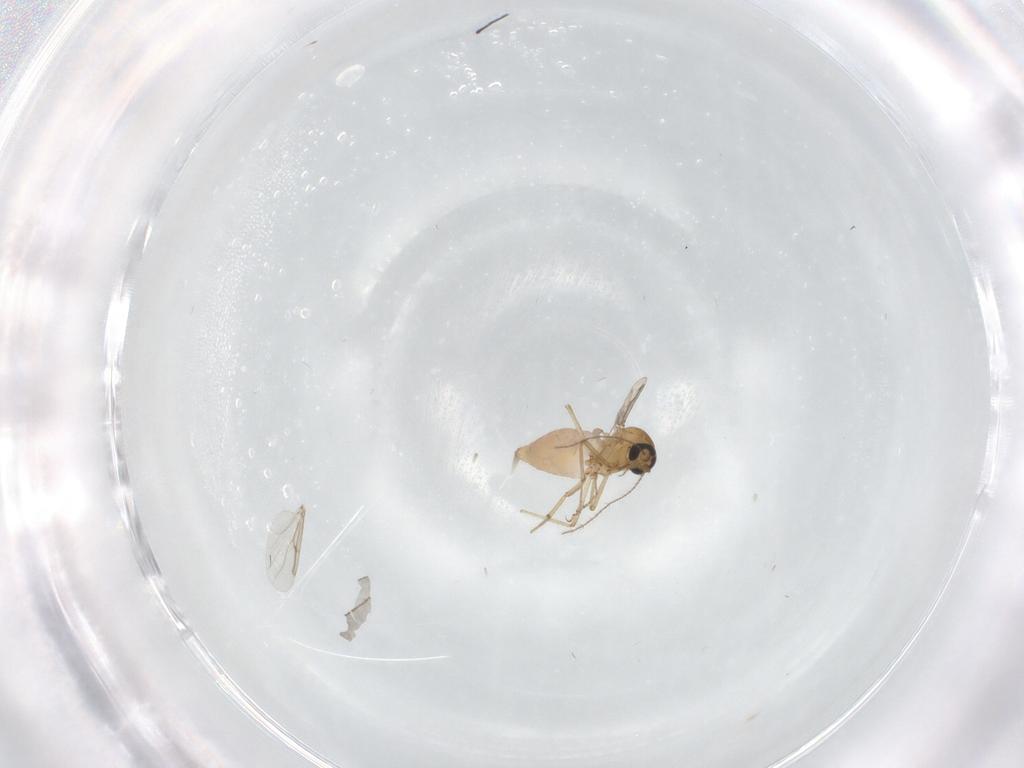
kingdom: Animalia
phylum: Arthropoda
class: Insecta
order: Diptera
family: Ceratopogonidae
